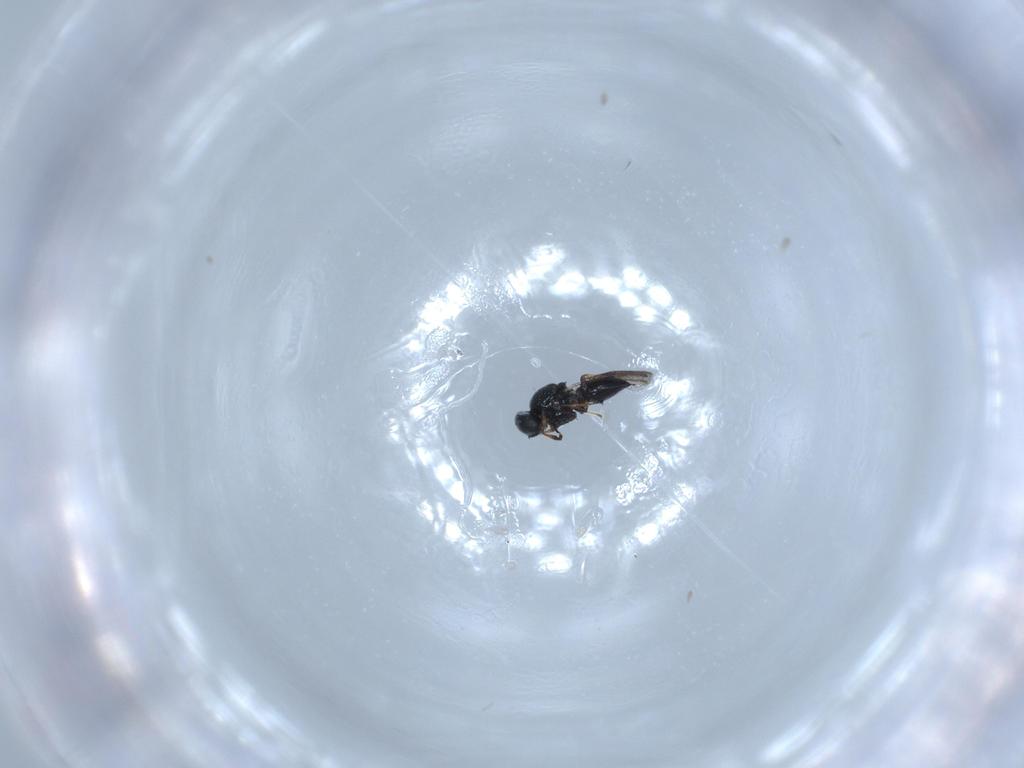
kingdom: Animalia
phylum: Arthropoda
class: Insecta
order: Hymenoptera
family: Platygastridae
